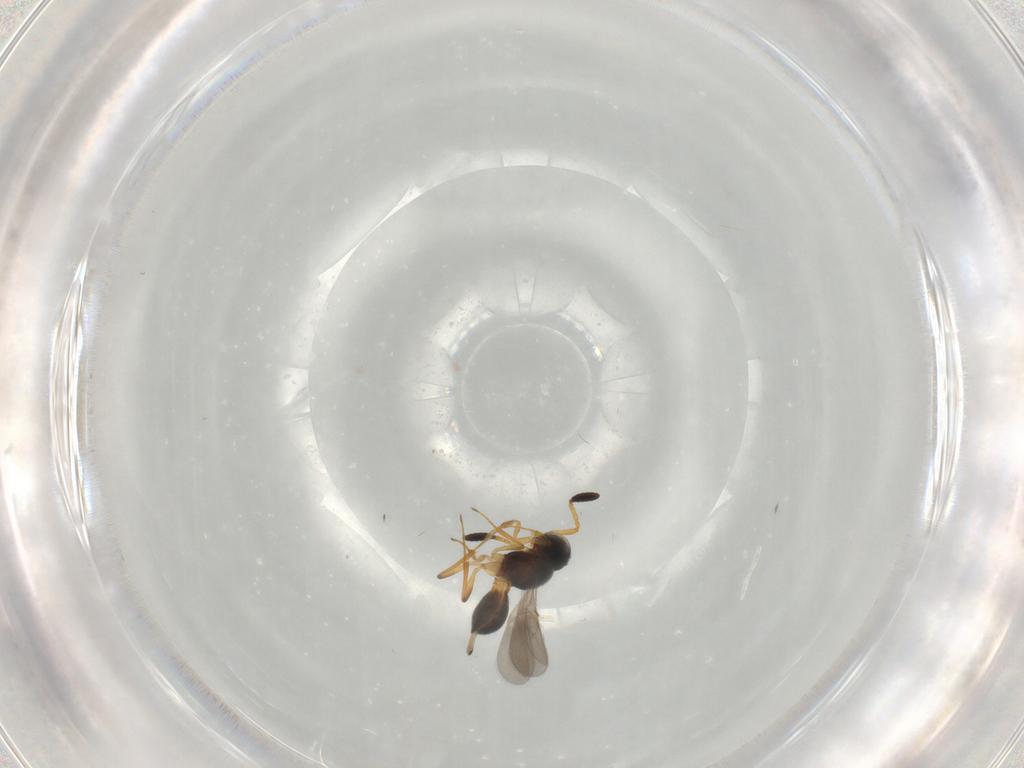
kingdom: Animalia
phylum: Arthropoda
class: Insecta
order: Hymenoptera
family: Scelionidae
